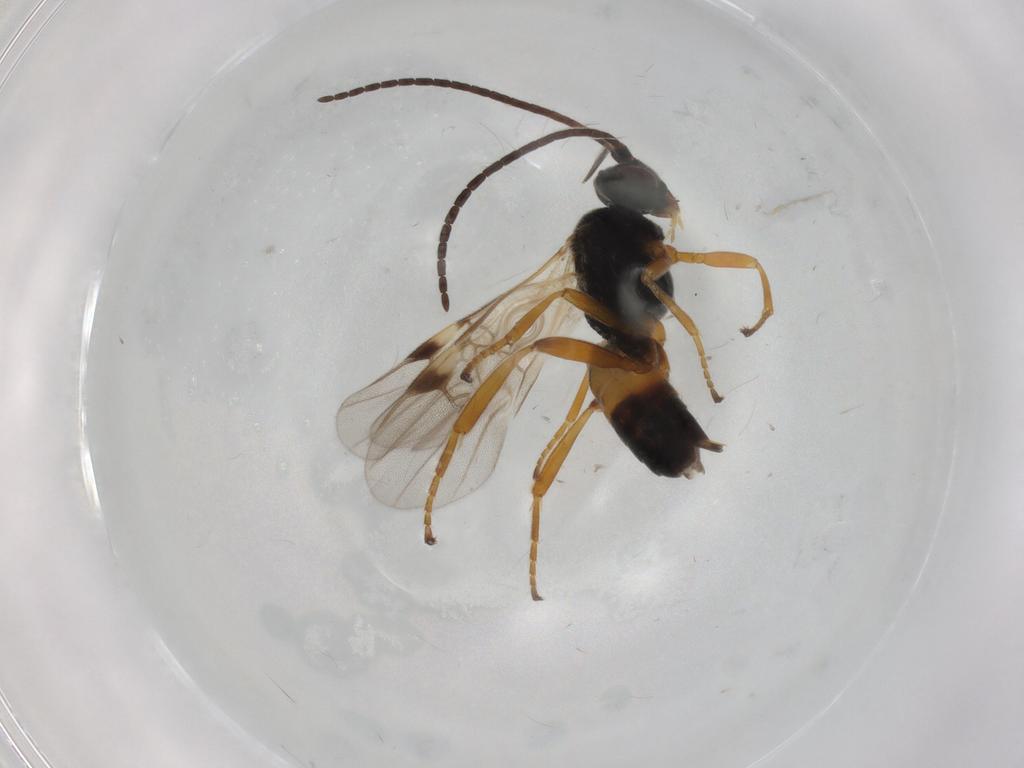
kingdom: Animalia
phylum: Arthropoda
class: Insecta
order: Hymenoptera
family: Braconidae
